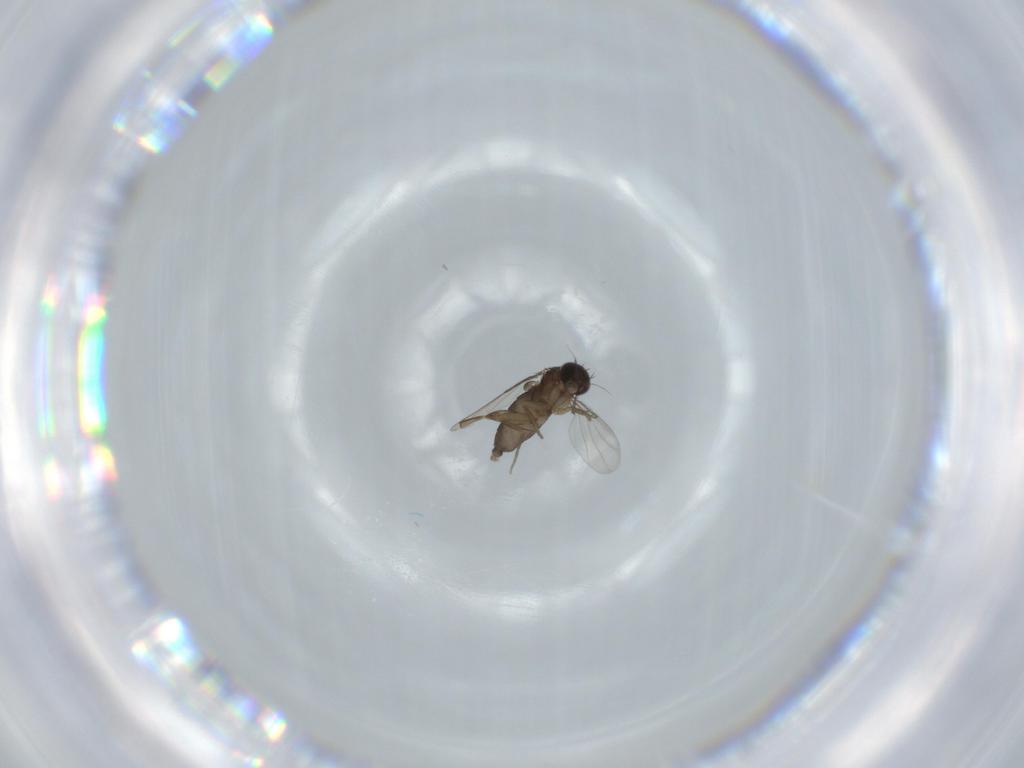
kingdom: Animalia
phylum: Arthropoda
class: Insecta
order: Diptera
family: Phoridae
